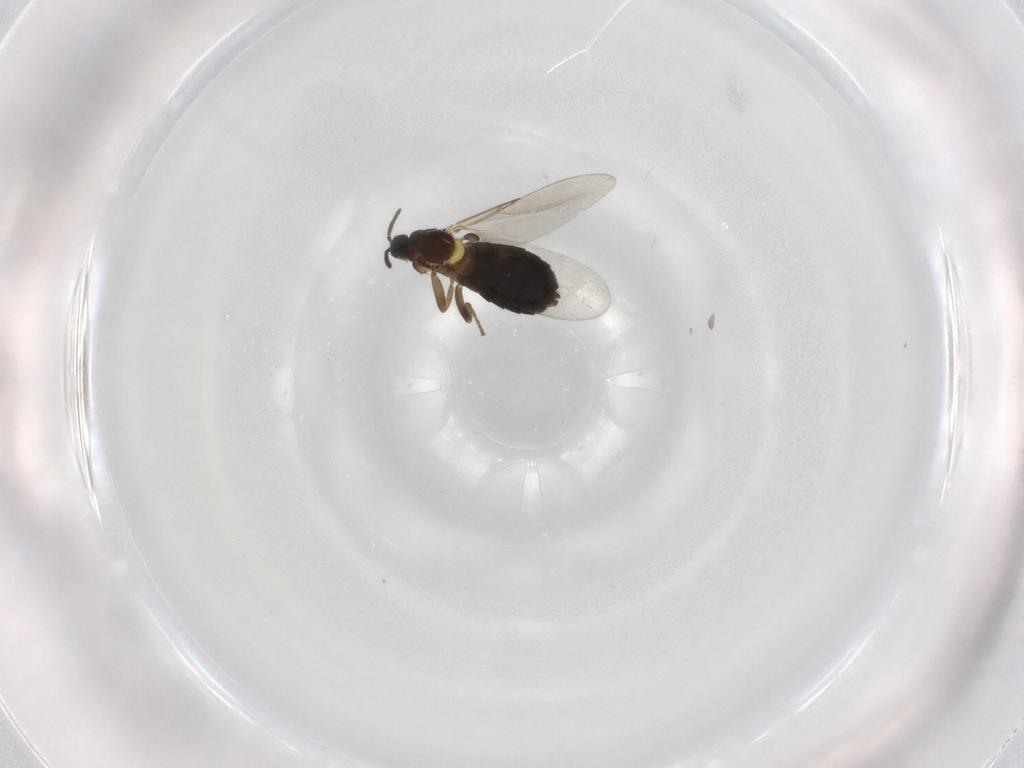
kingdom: Animalia
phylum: Arthropoda
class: Insecta
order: Diptera
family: Scatopsidae
